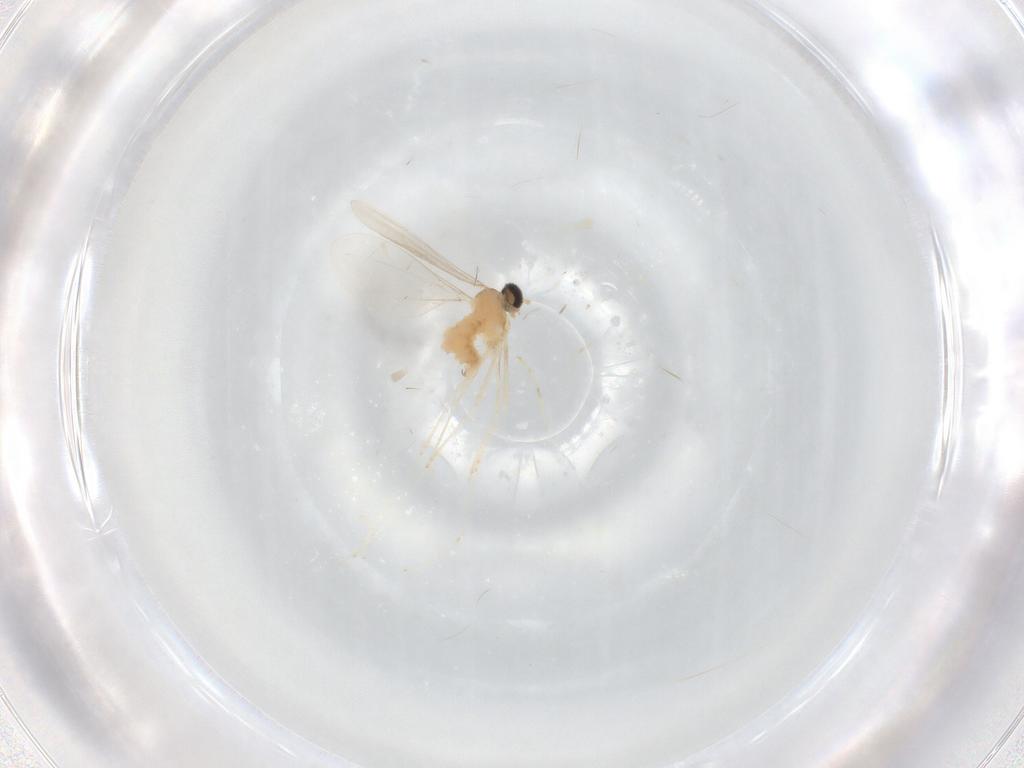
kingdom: Animalia
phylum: Arthropoda
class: Insecta
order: Diptera
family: Cecidomyiidae
